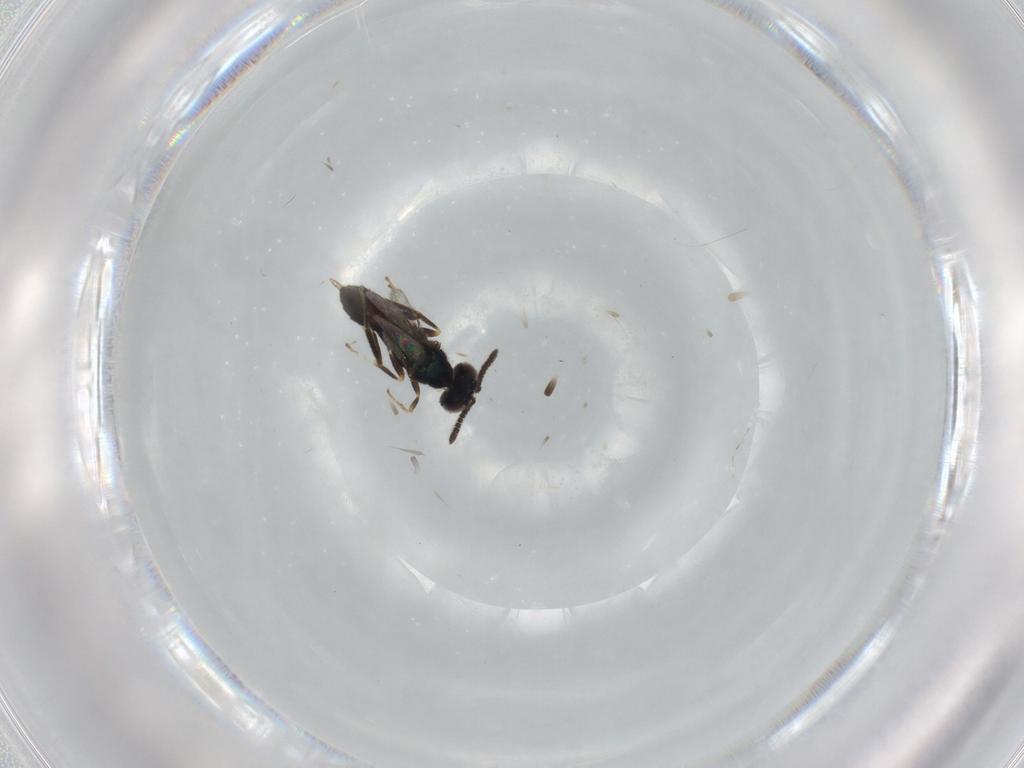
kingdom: Animalia
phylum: Arthropoda
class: Insecta
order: Hymenoptera
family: Cleonyminae
